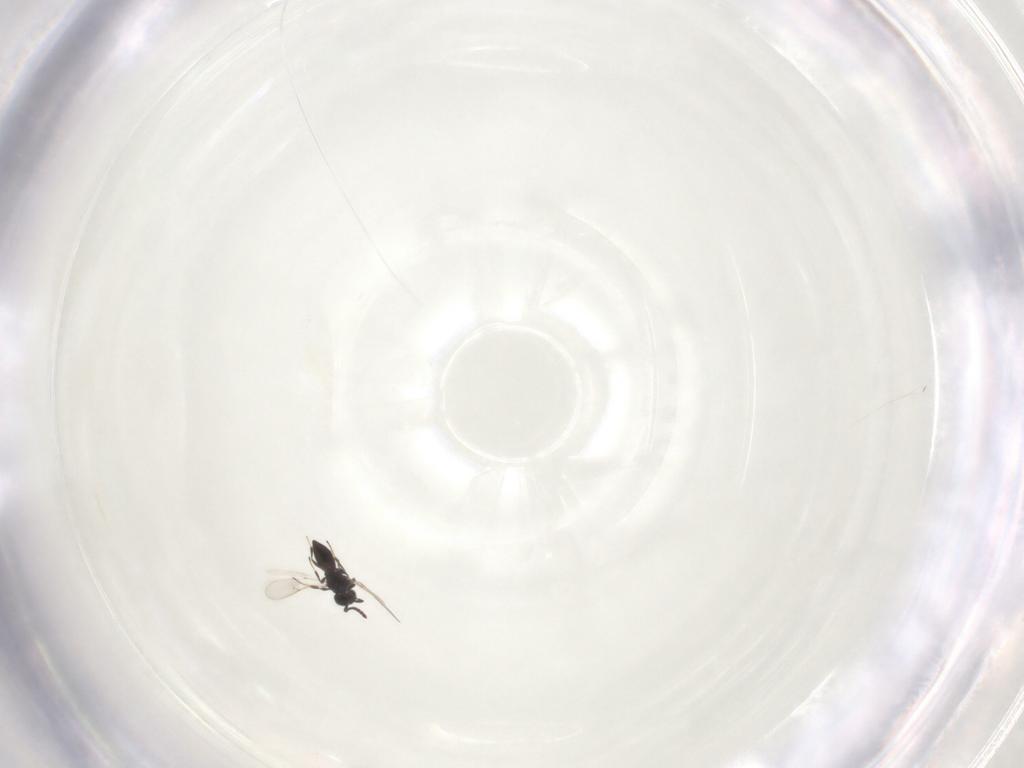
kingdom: Animalia
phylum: Arthropoda
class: Insecta
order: Hymenoptera
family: Scelionidae
